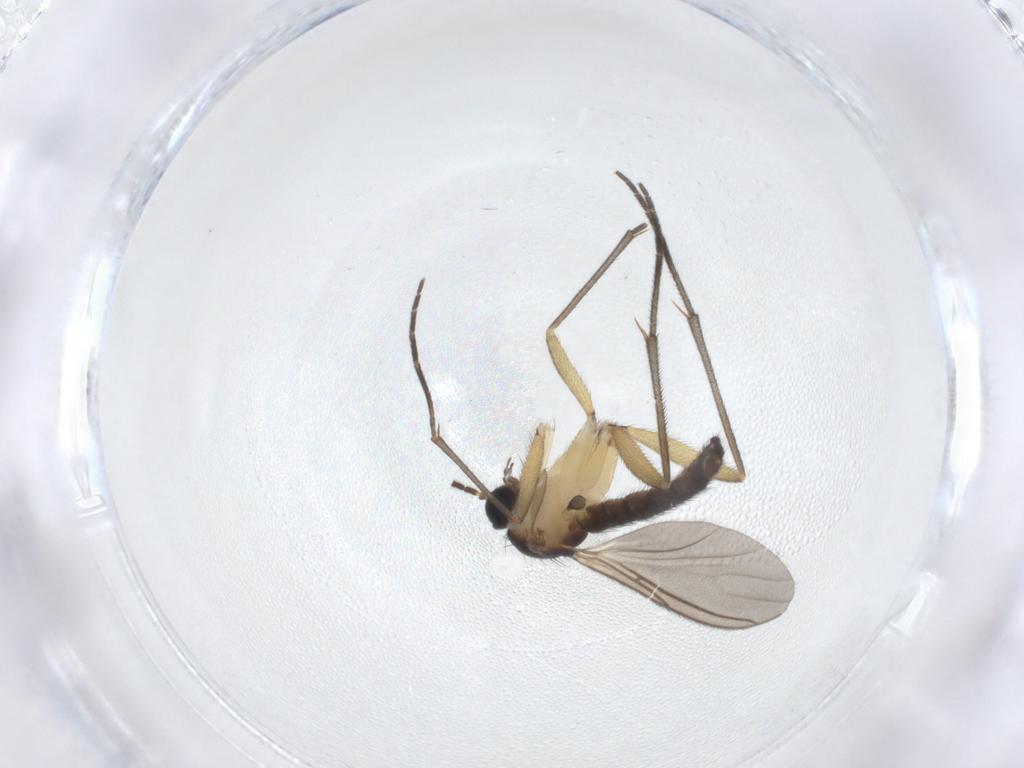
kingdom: Animalia
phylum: Arthropoda
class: Insecta
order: Diptera
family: Sciaridae
